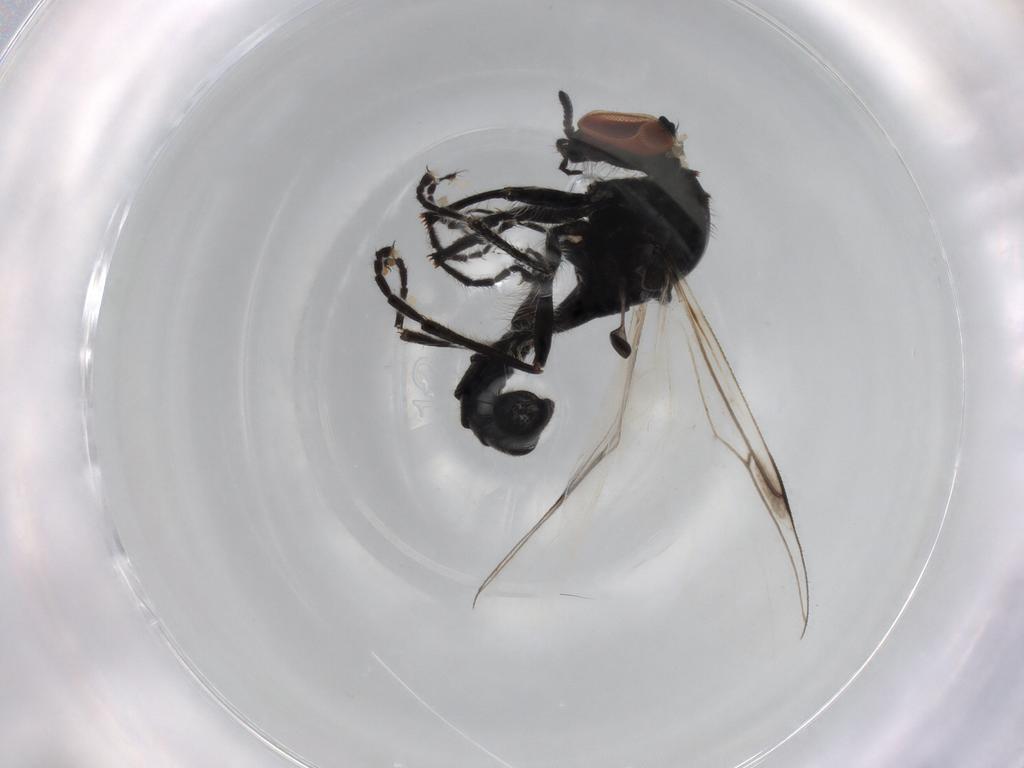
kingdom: Animalia
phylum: Arthropoda
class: Insecta
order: Diptera
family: Bibionidae
